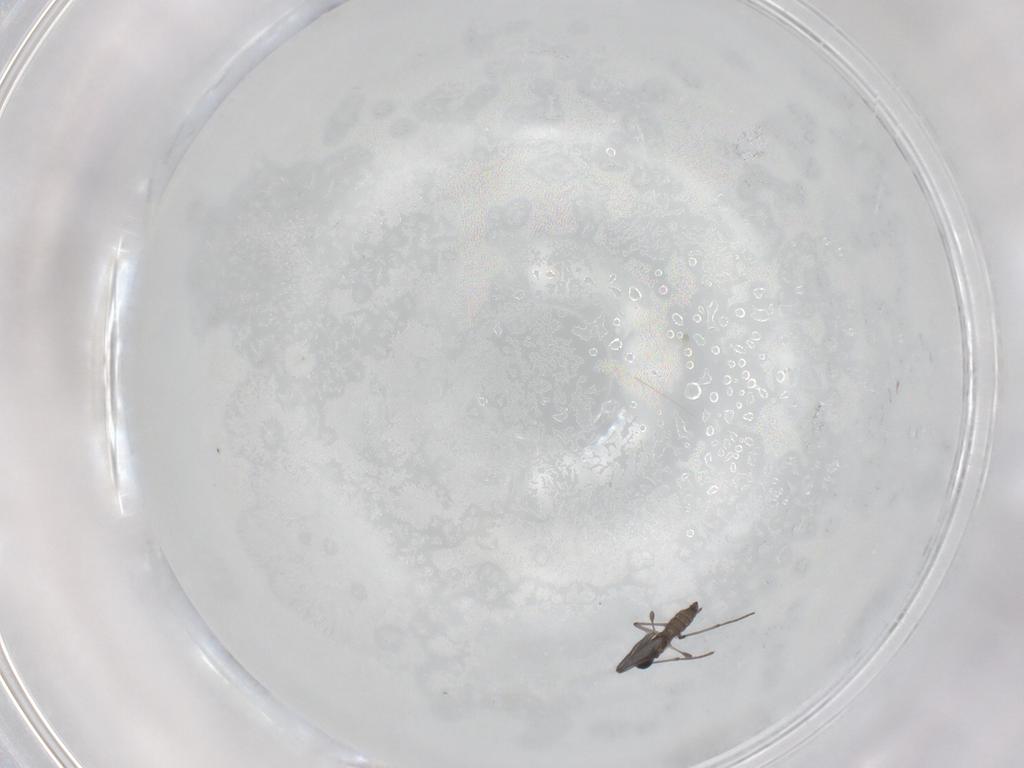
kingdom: Animalia
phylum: Arthropoda
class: Insecta
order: Diptera
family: Sciaridae
